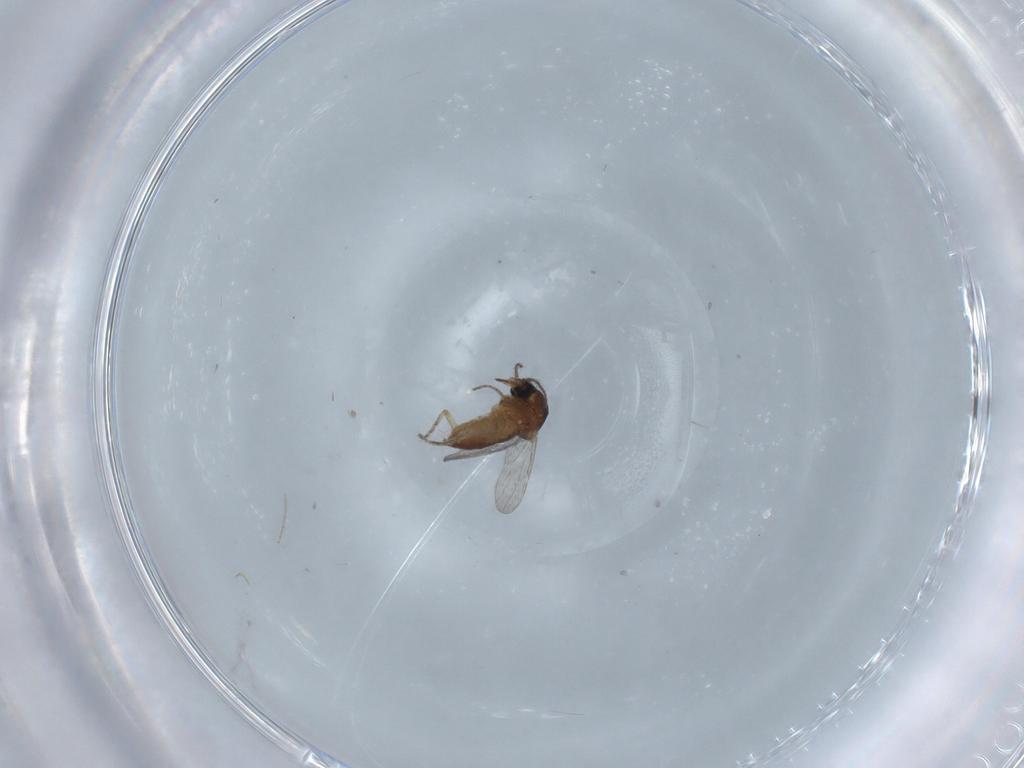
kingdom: Animalia
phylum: Arthropoda
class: Insecta
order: Diptera
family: Ceratopogonidae
